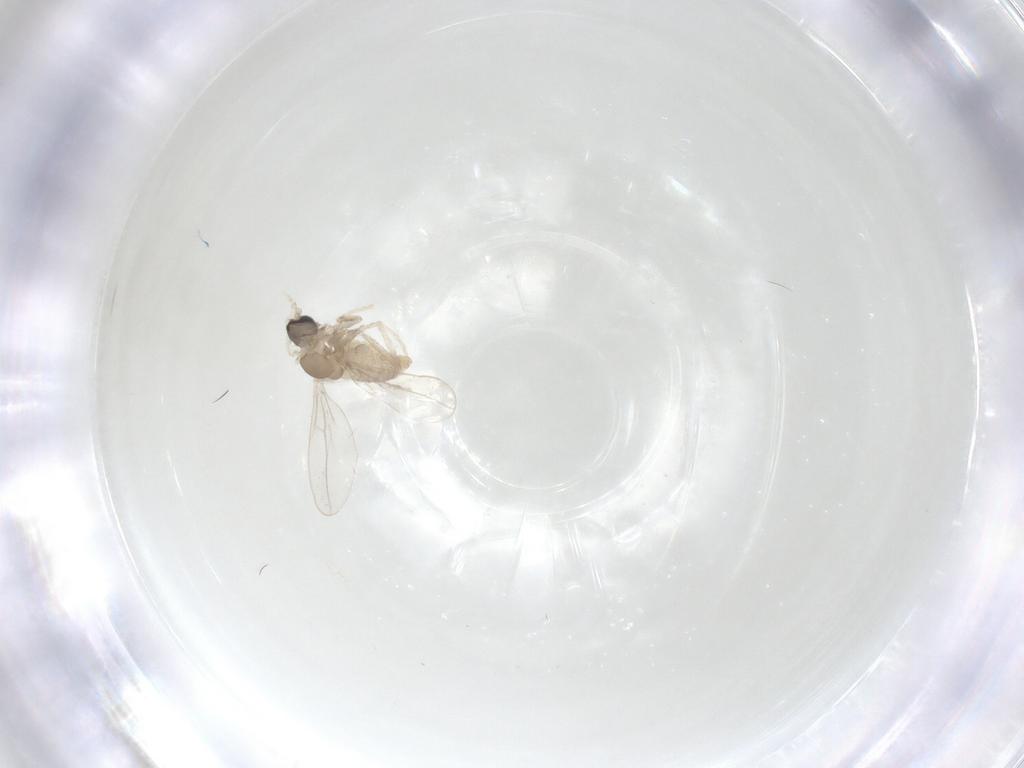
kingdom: Animalia
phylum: Arthropoda
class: Insecta
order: Diptera
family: Cecidomyiidae
